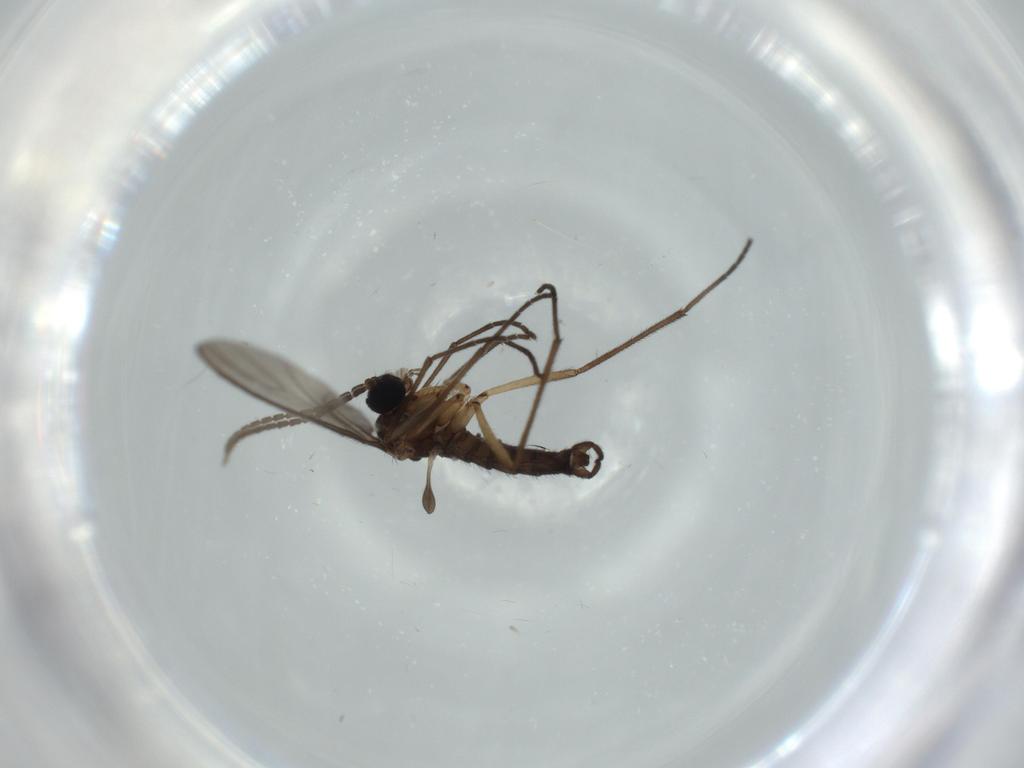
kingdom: Animalia
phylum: Arthropoda
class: Insecta
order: Diptera
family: Sciaridae
